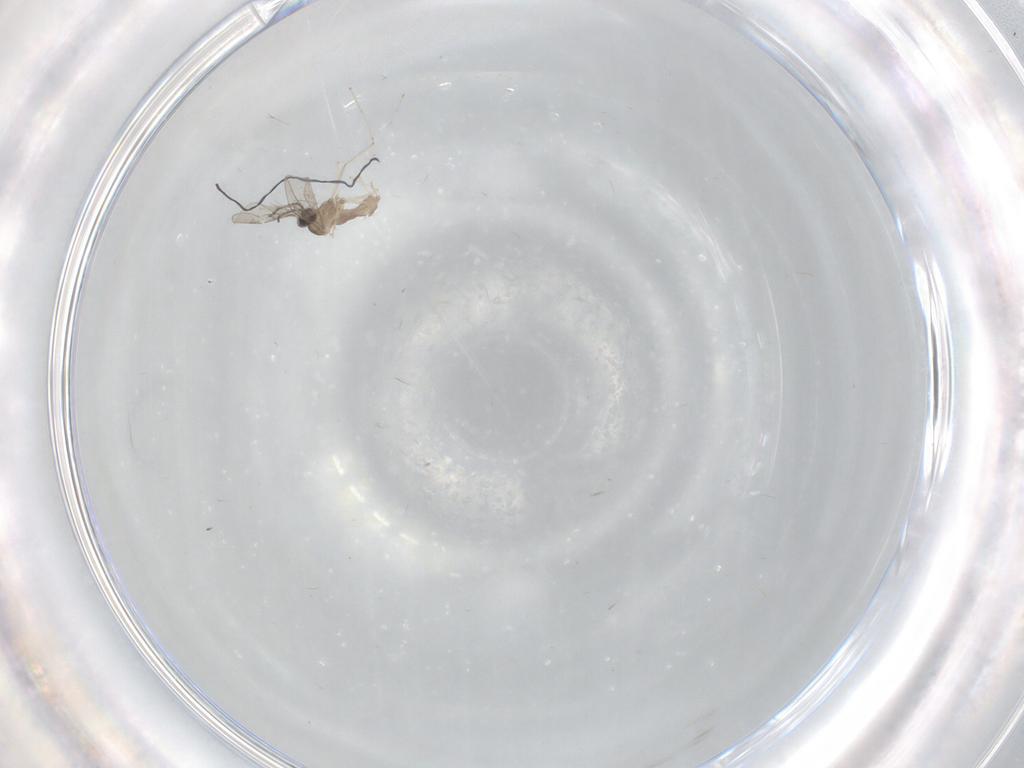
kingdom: Animalia
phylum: Arthropoda
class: Insecta
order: Diptera
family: Cecidomyiidae
